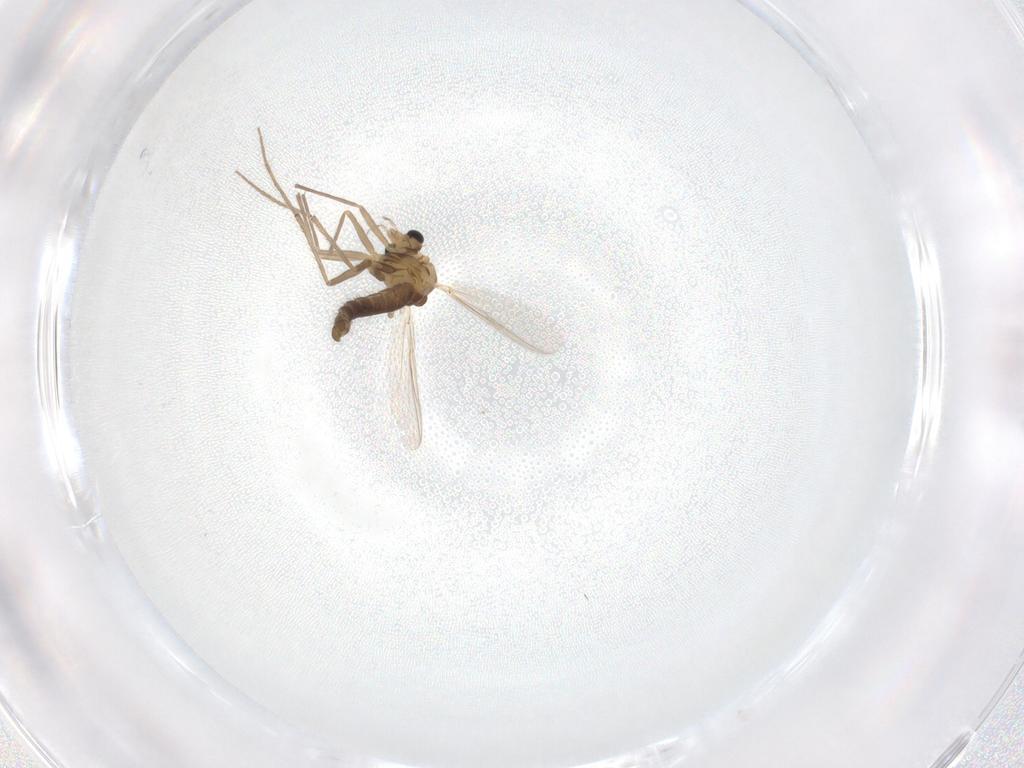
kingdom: Animalia
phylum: Arthropoda
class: Insecta
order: Diptera
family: Chironomidae
